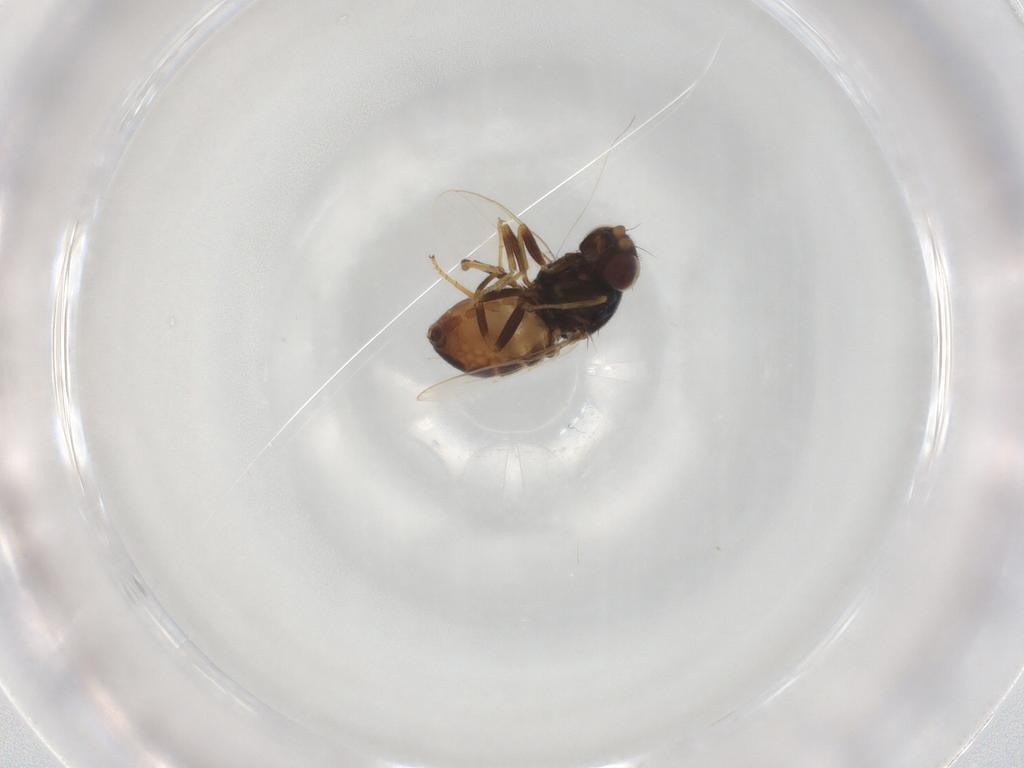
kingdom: Animalia
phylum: Arthropoda
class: Insecta
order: Diptera
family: Chloropidae
